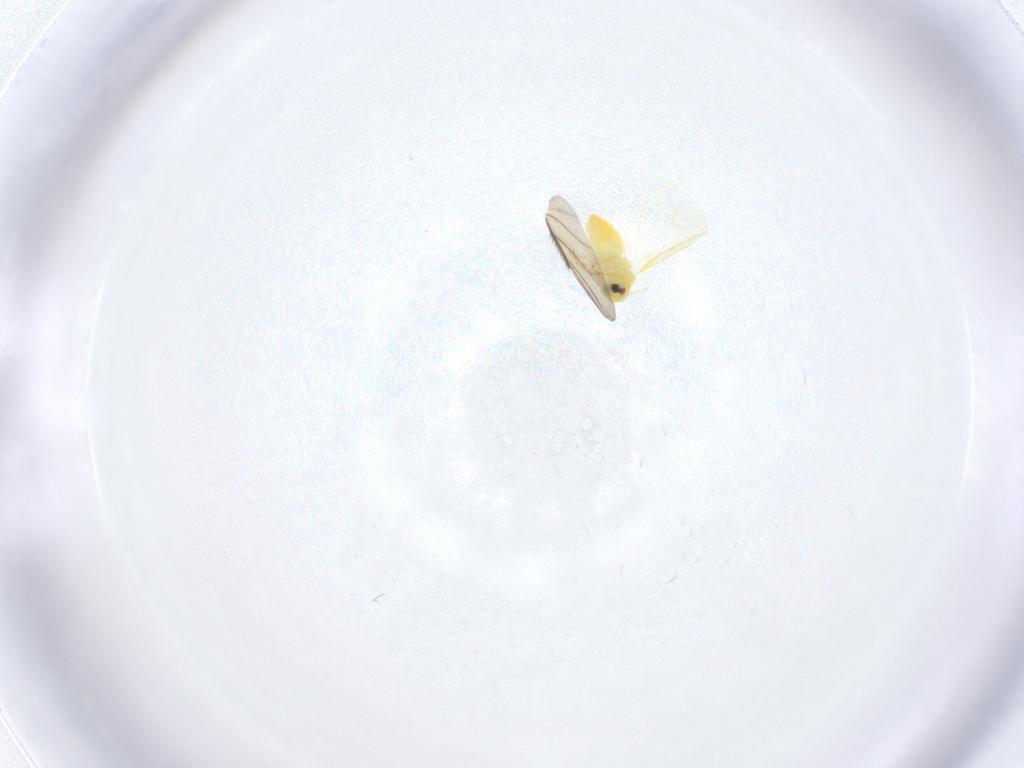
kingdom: Animalia
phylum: Arthropoda
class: Insecta
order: Hemiptera
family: Aleyrodidae
